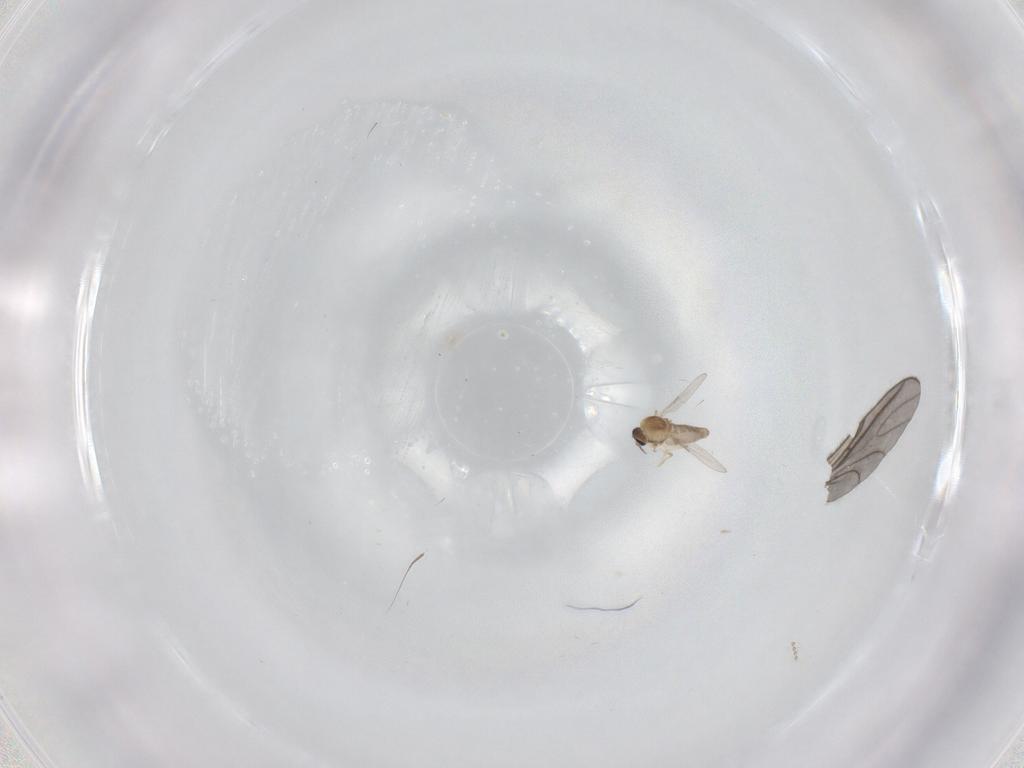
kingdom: Animalia
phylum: Arthropoda
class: Insecta
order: Diptera
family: Ceratopogonidae
